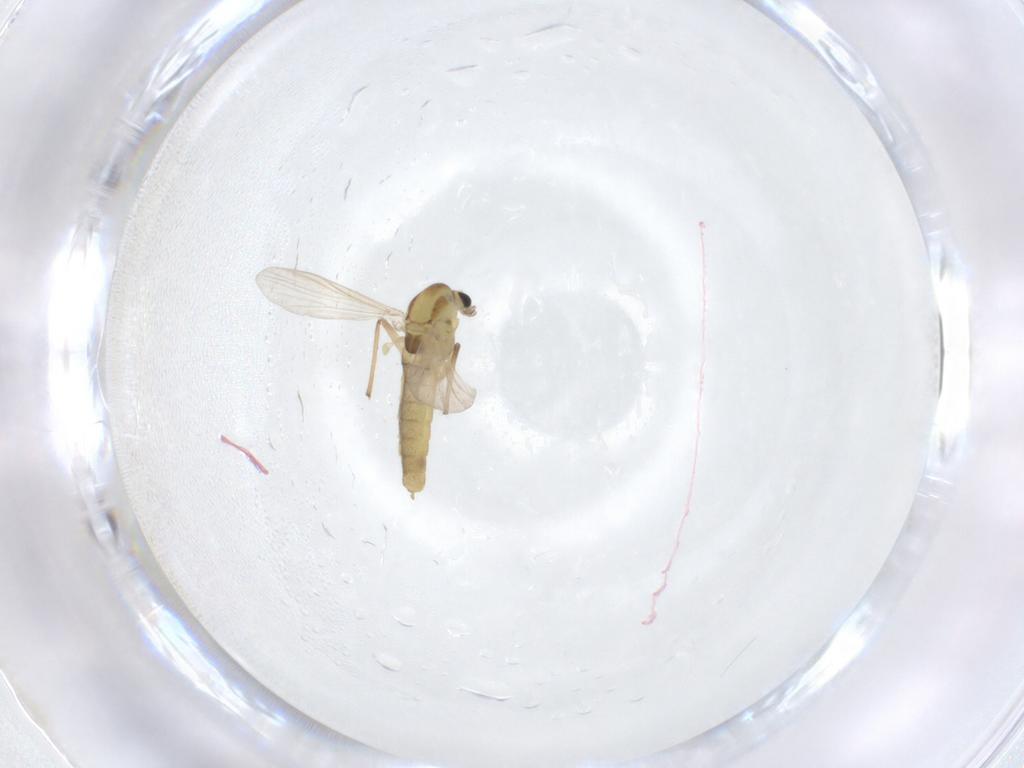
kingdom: Animalia
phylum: Arthropoda
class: Insecta
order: Diptera
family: Chironomidae
